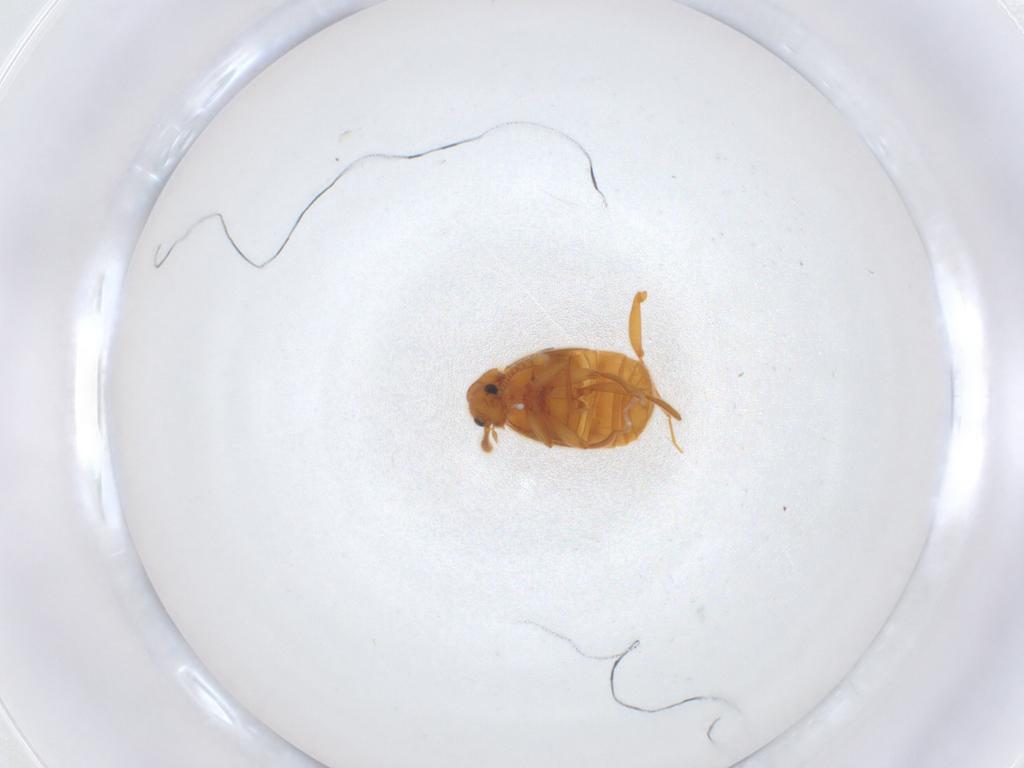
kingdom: Animalia
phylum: Arthropoda
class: Insecta
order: Coleoptera
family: Staphylinidae
